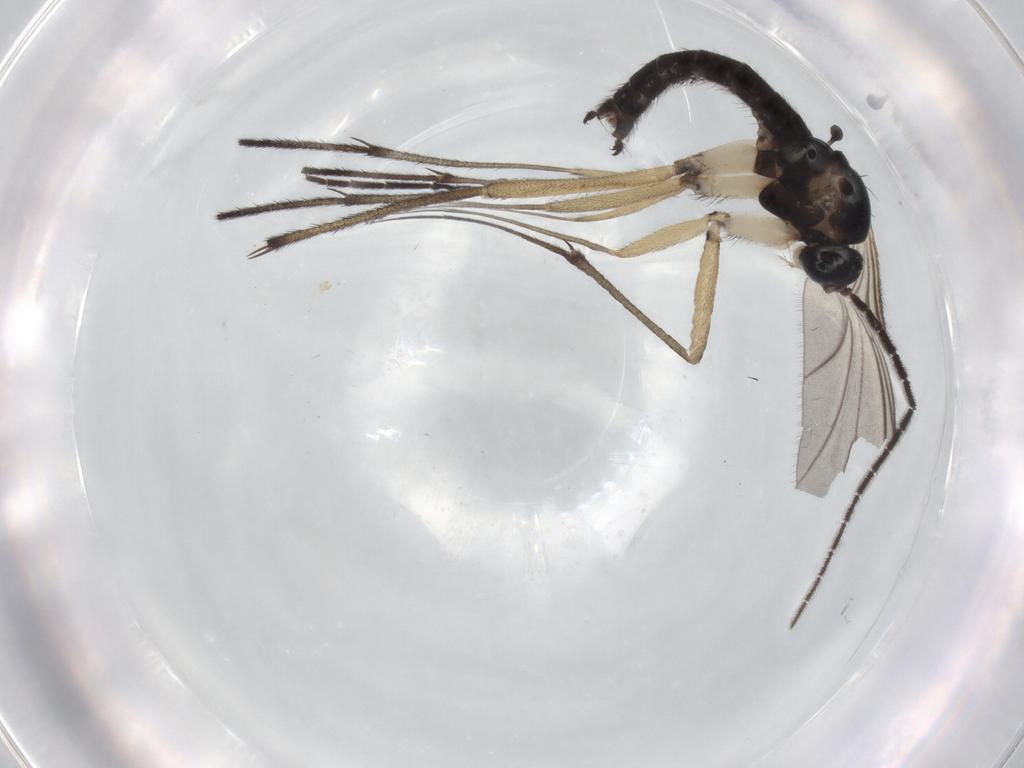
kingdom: Animalia
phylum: Arthropoda
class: Insecta
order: Diptera
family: Sciaridae
